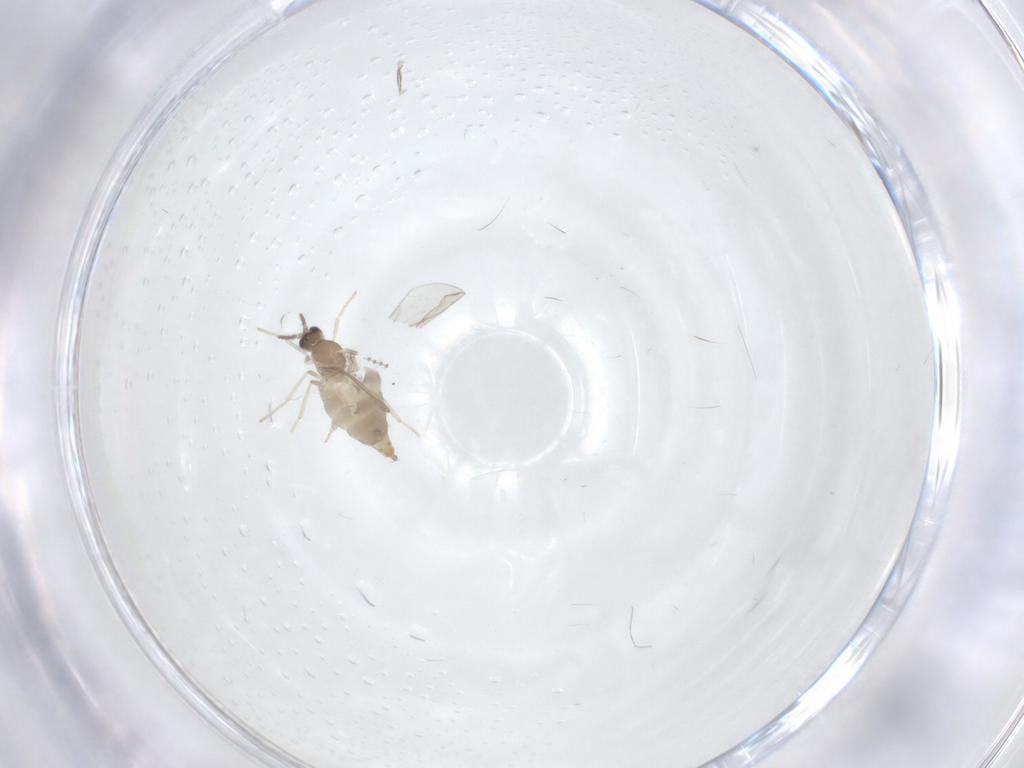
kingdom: Animalia
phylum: Arthropoda
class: Insecta
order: Diptera
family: Cecidomyiidae
